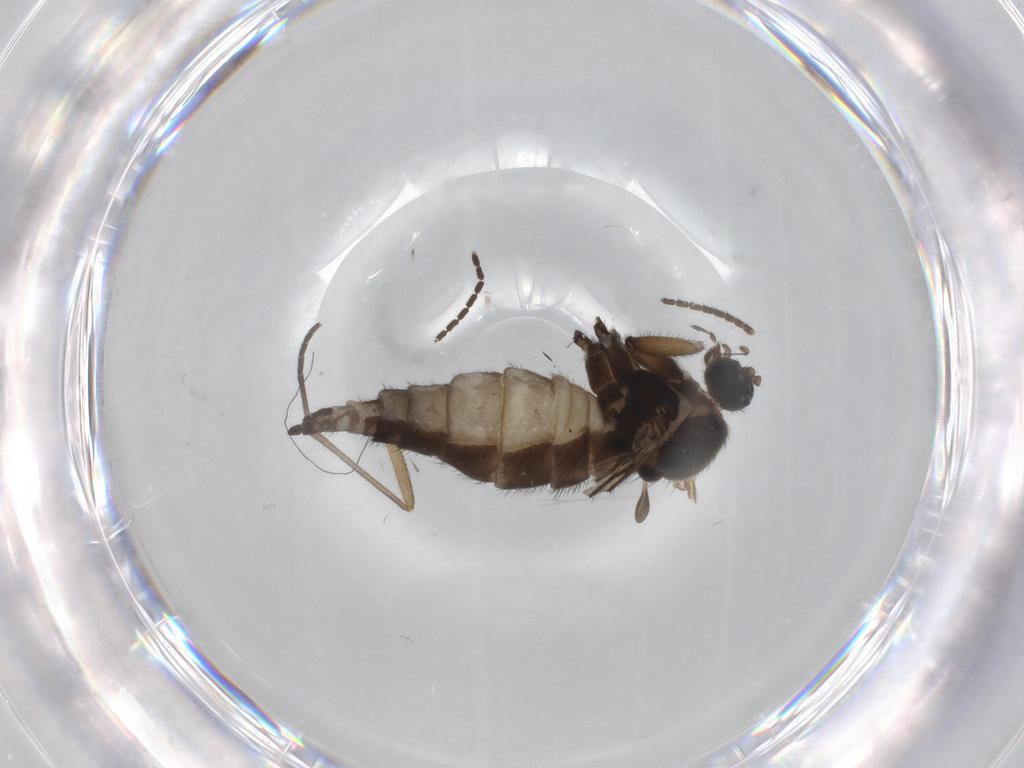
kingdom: Animalia
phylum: Arthropoda
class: Insecta
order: Diptera
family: Sciaridae
